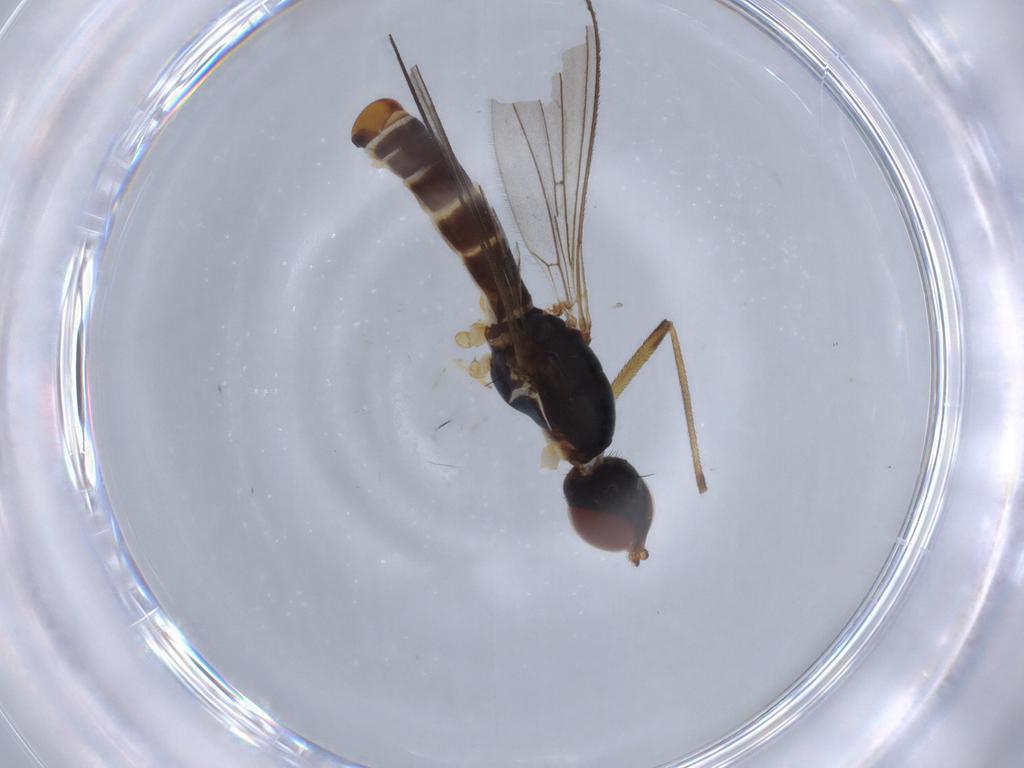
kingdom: Animalia
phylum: Arthropoda
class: Insecta
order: Diptera
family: Micropezidae
